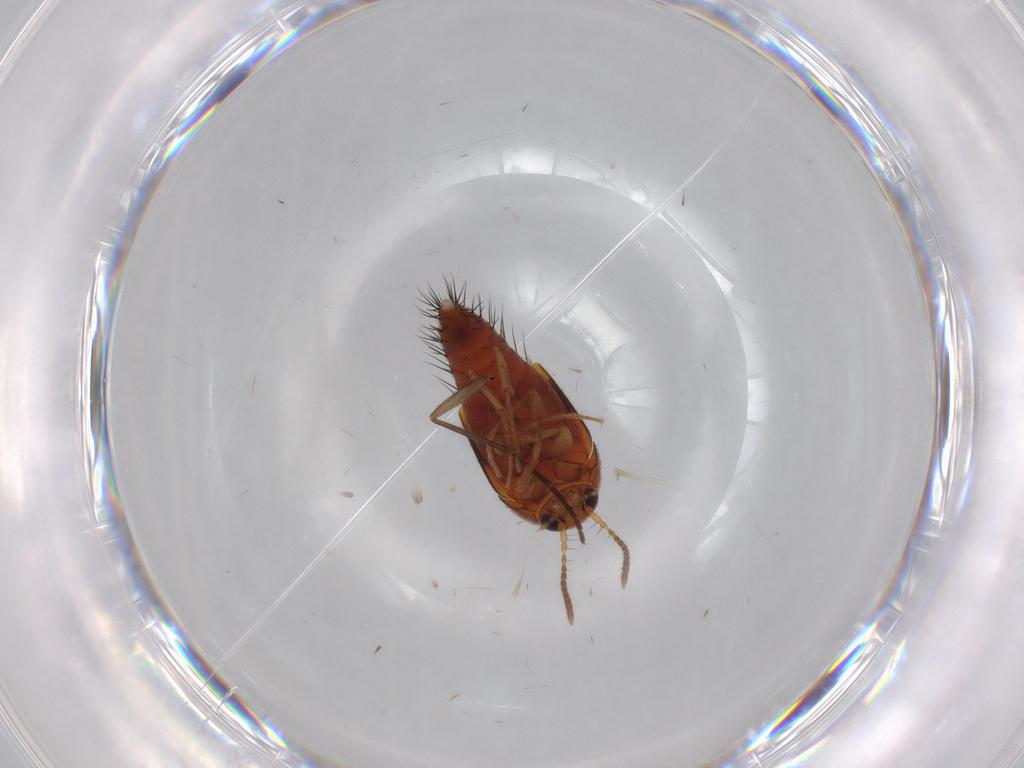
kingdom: Animalia
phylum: Arthropoda
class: Insecta
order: Coleoptera
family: Staphylinidae
